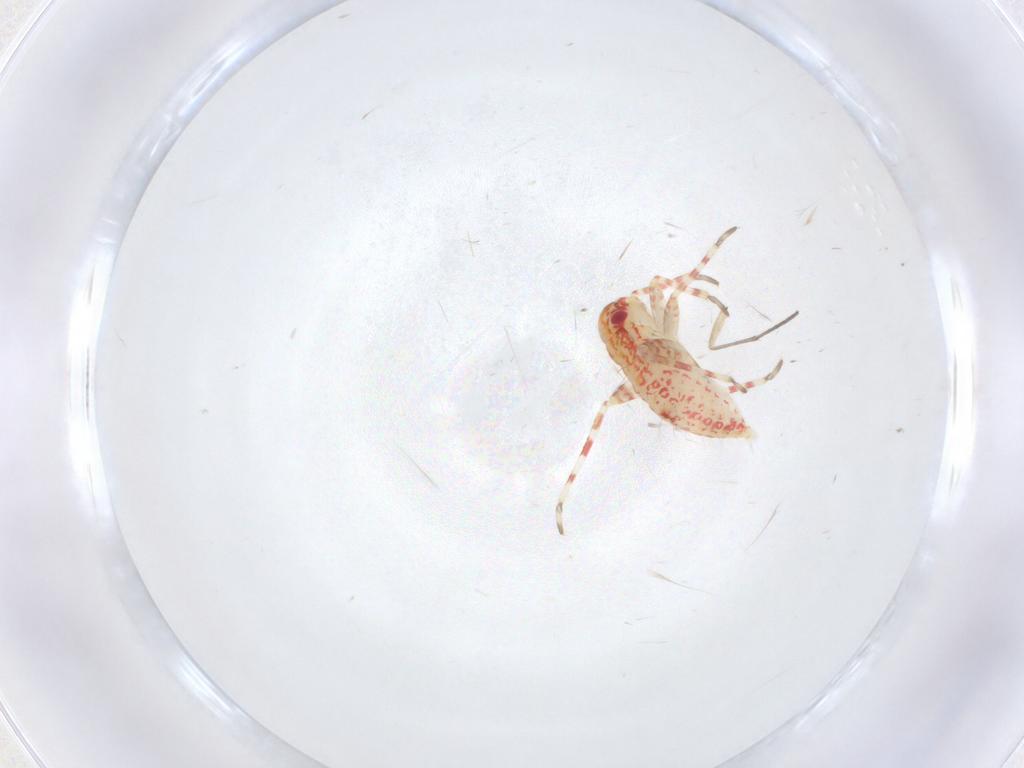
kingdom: Animalia
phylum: Arthropoda
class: Insecta
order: Hemiptera
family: Miridae
